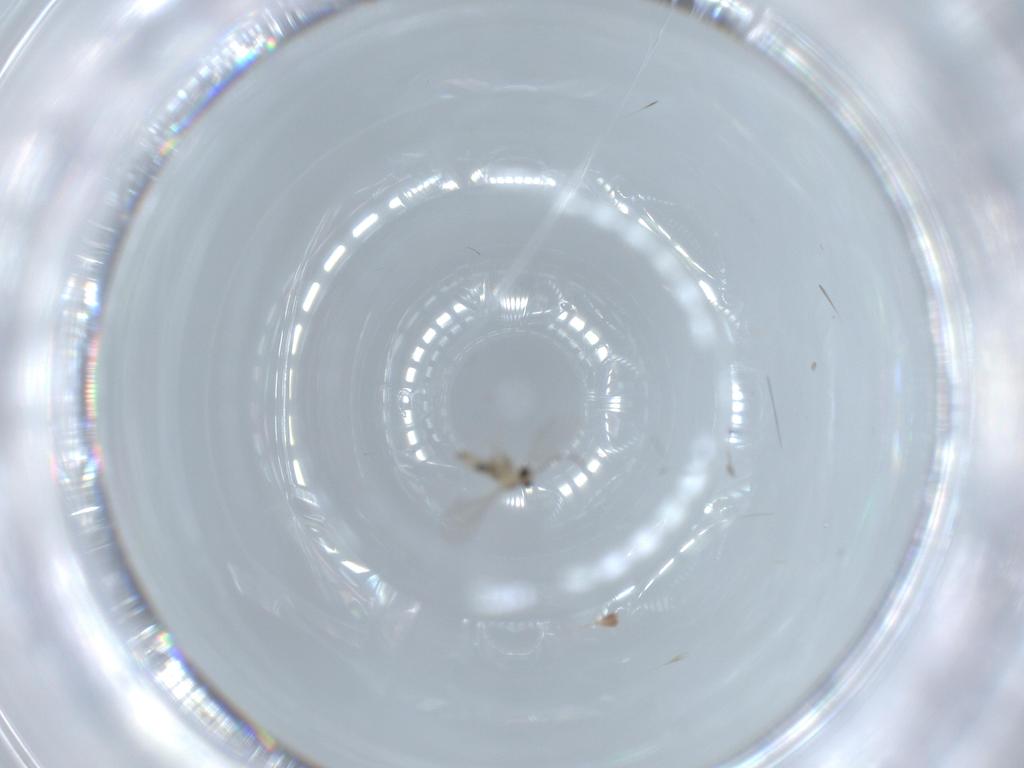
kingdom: Animalia
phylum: Arthropoda
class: Insecta
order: Diptera
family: Cecidomyiidae
